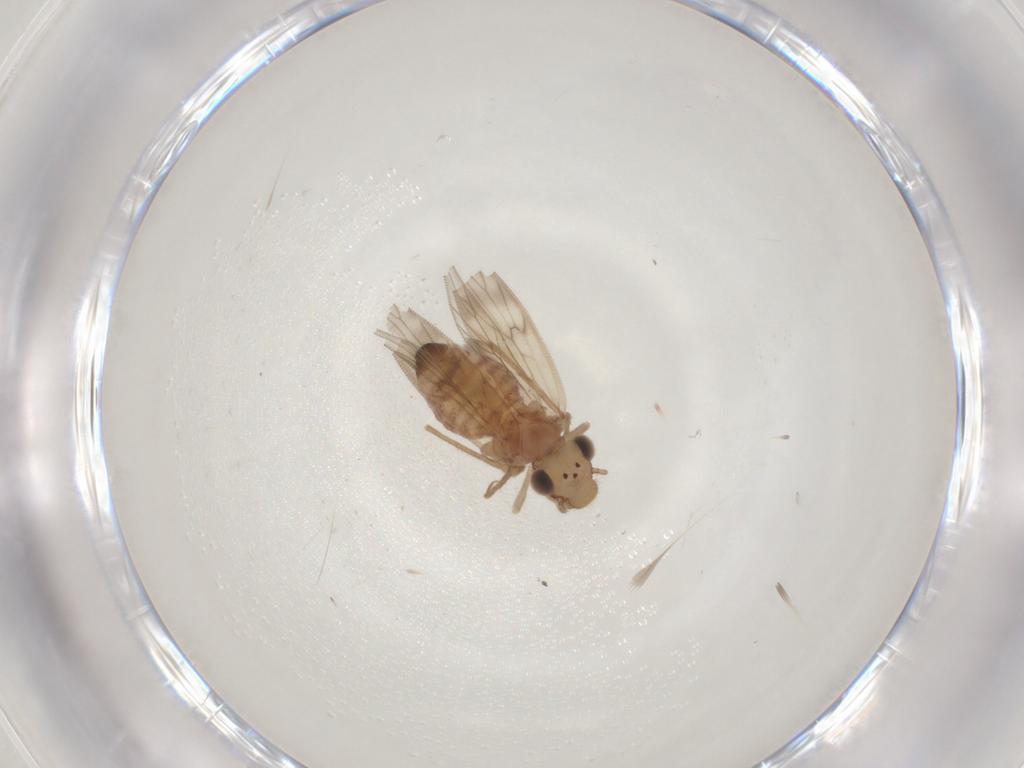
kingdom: Animalia
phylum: Arthropoda
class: Insecta
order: Psocodea
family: Lepidopsocidae
